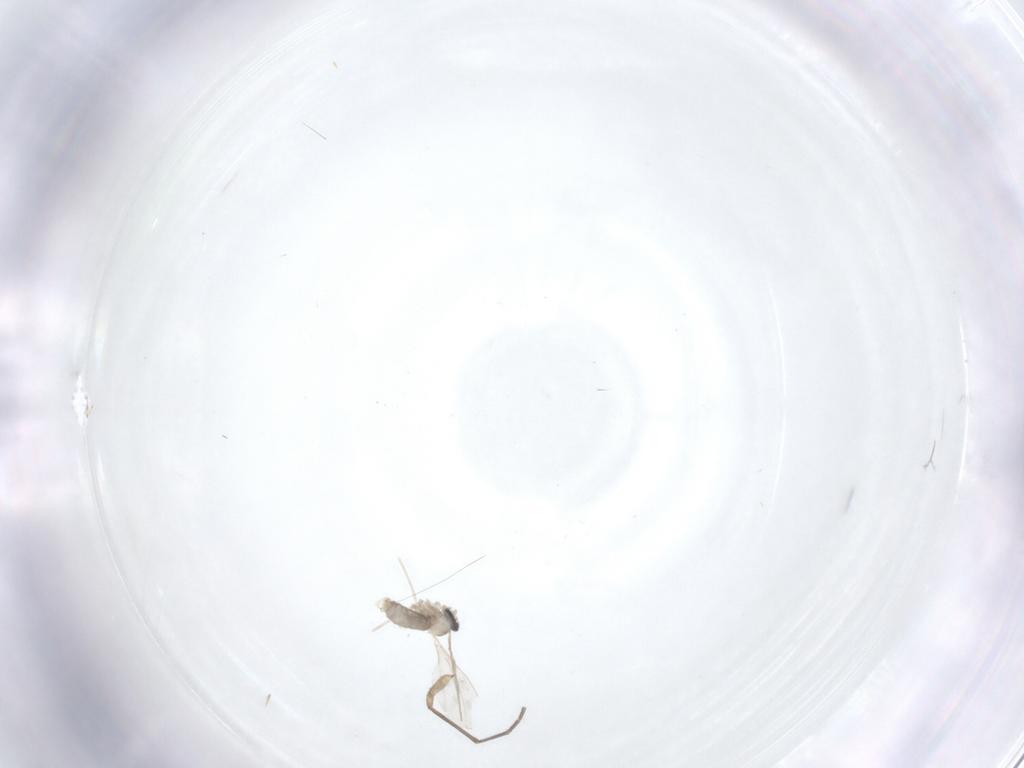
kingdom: Animalia
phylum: Arthropoda
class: Insecta
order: Diptera
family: Cecidomyiidae
